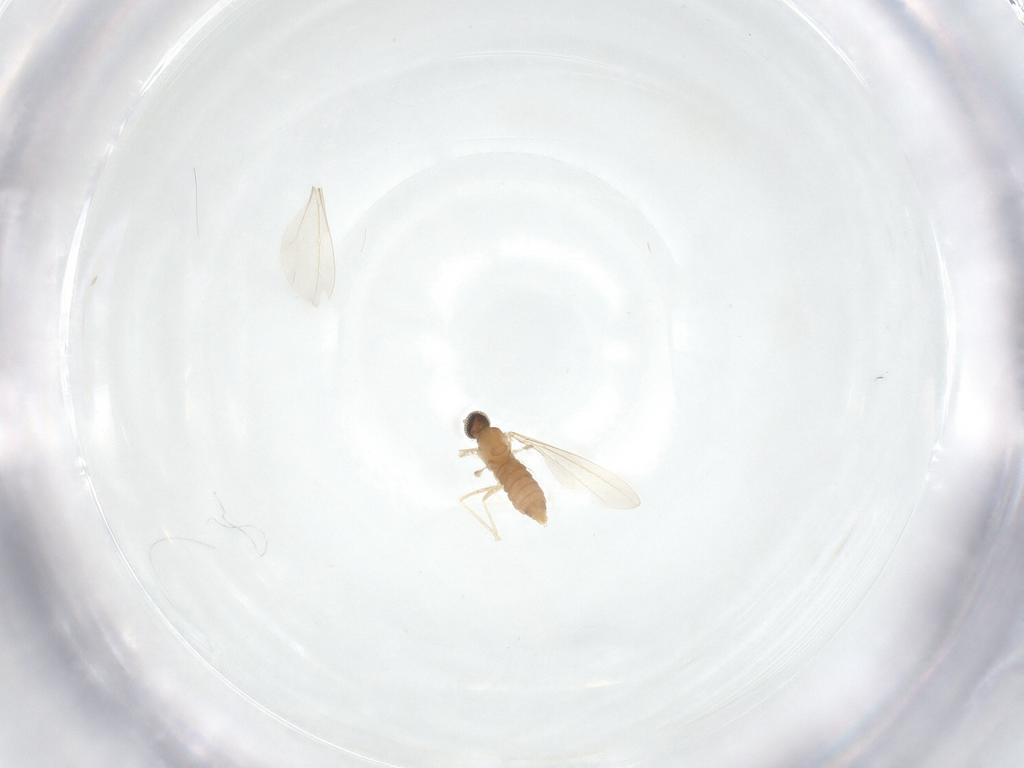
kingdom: Animalia
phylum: Arthropoda
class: Insecta
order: Diptera
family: Cecidomyiidae
